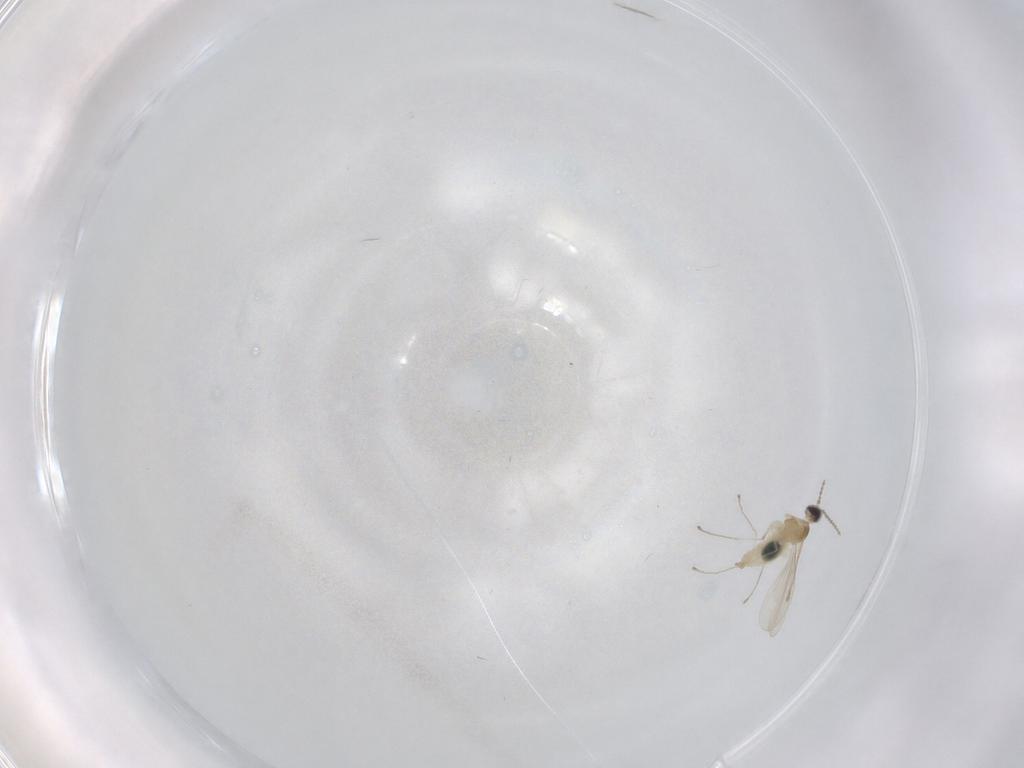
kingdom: Animalia
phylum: Arthropoda
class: Insecta
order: Diptera
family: Cecidomyiidae
